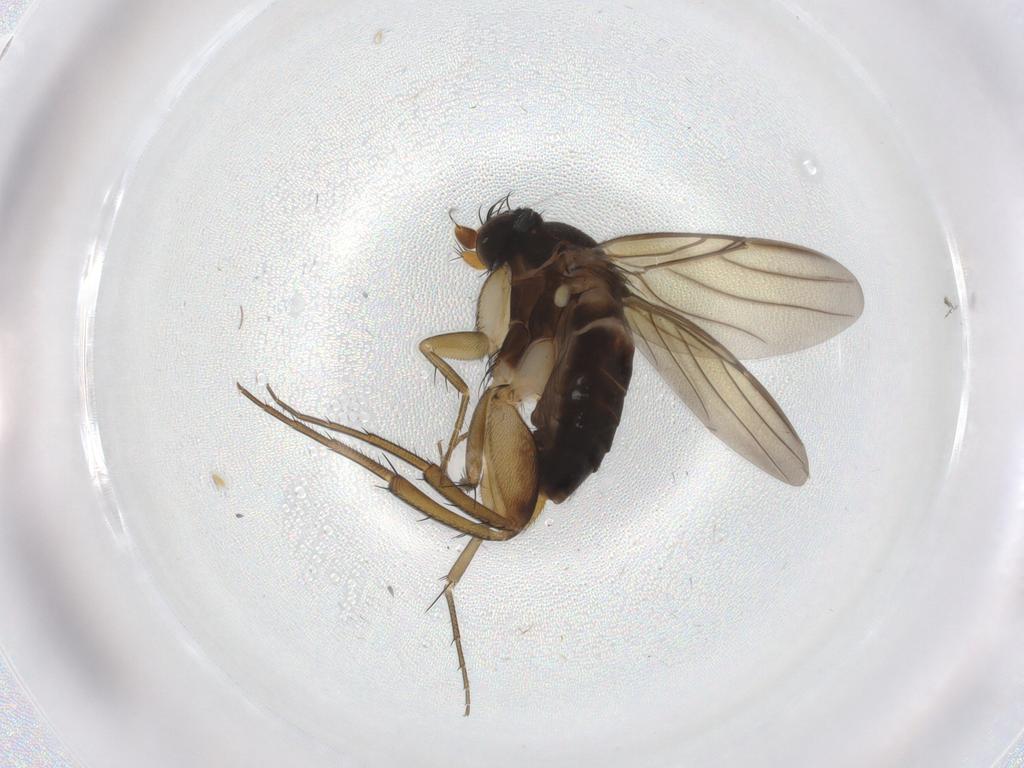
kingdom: Animalia
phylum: Arthropoda
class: Insecta
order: Diptera
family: Phoridae
